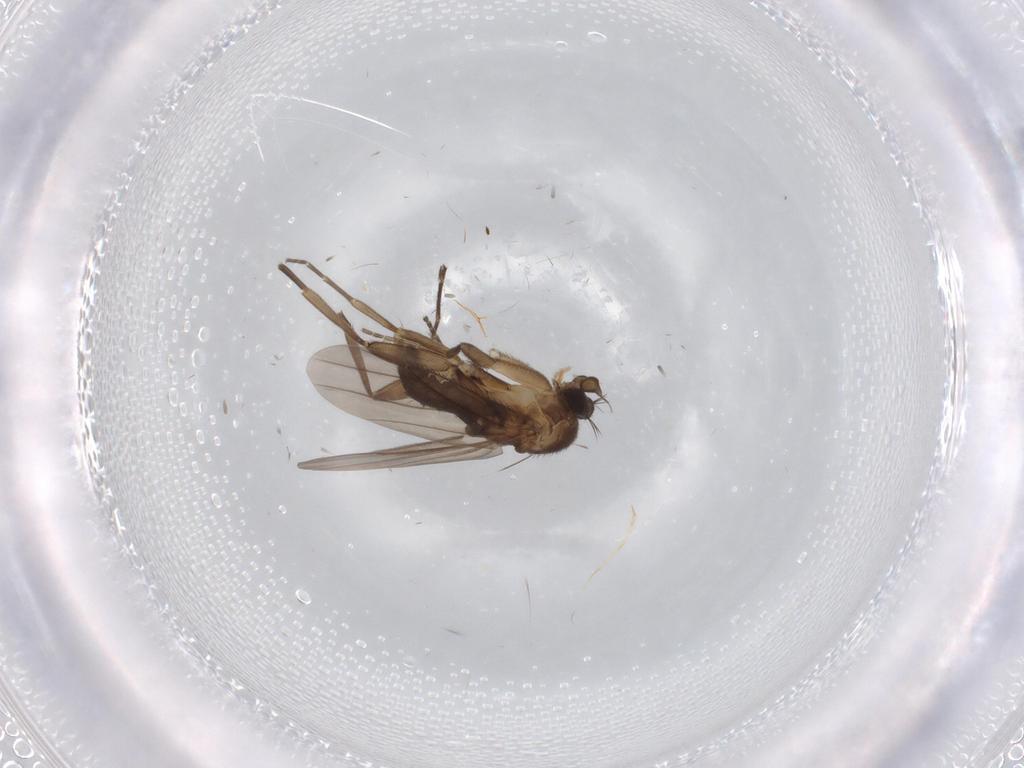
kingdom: Animalia
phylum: Arthropoda
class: Insecta
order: Diptera
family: Phoridae
